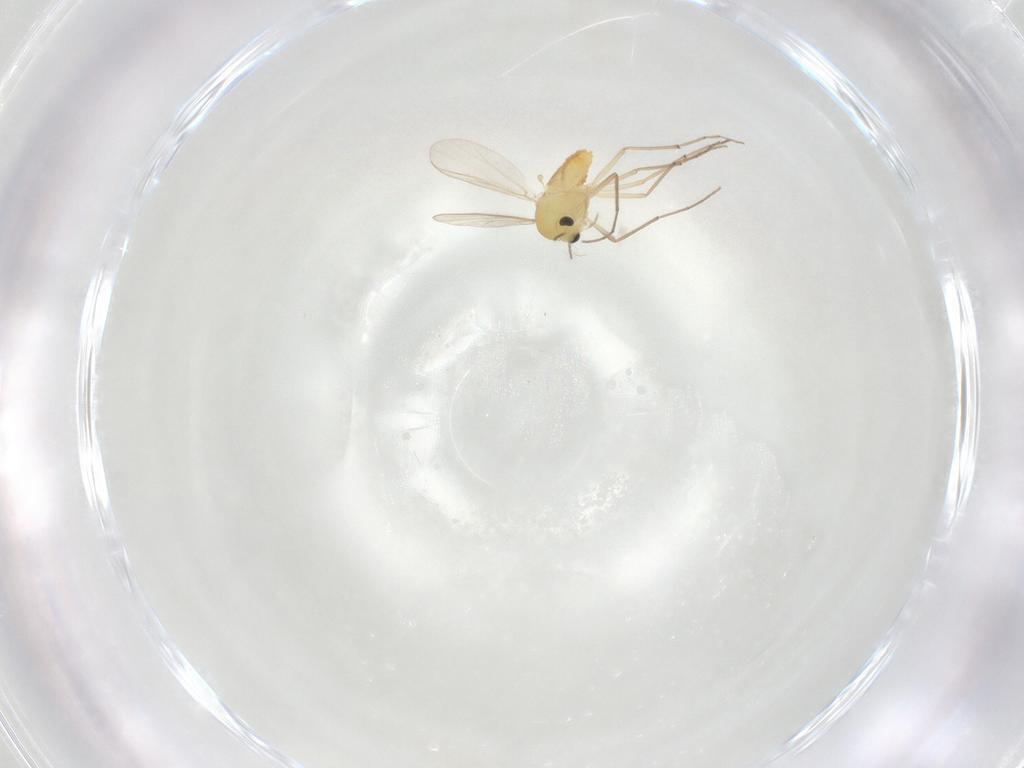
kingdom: Animalia
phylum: Arthropoda
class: Insecta
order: Diptera
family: Chironomidae
